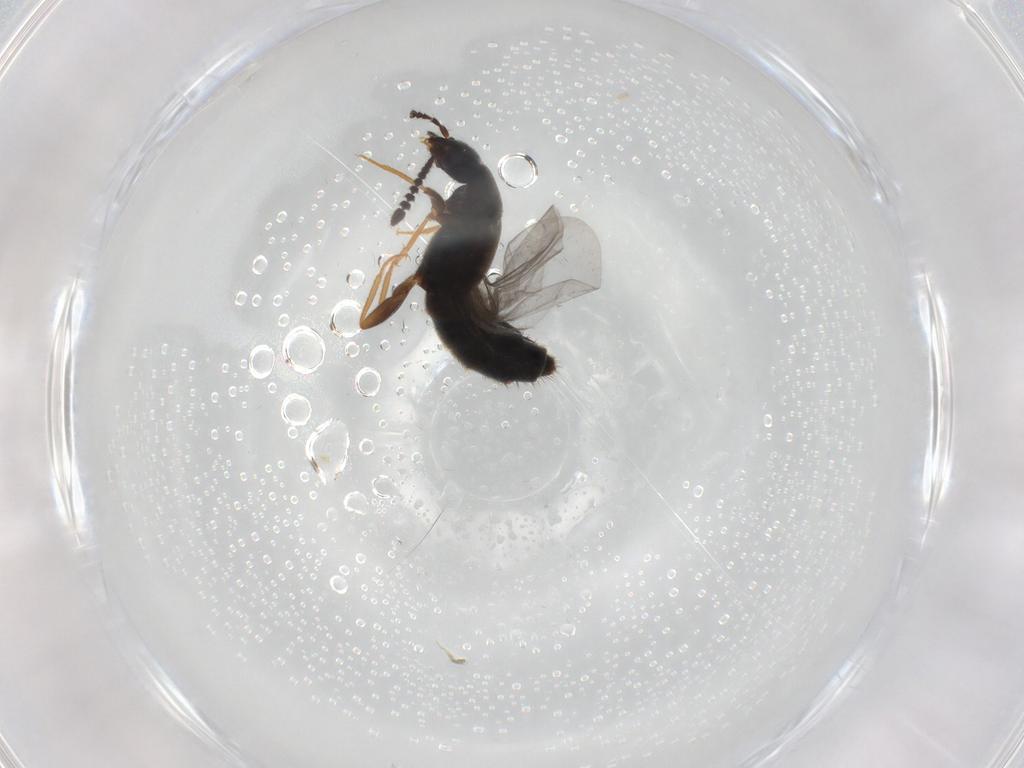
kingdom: Animalia
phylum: Arthropoda
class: Insecta
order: Coleoptera
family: Staphylinidae
